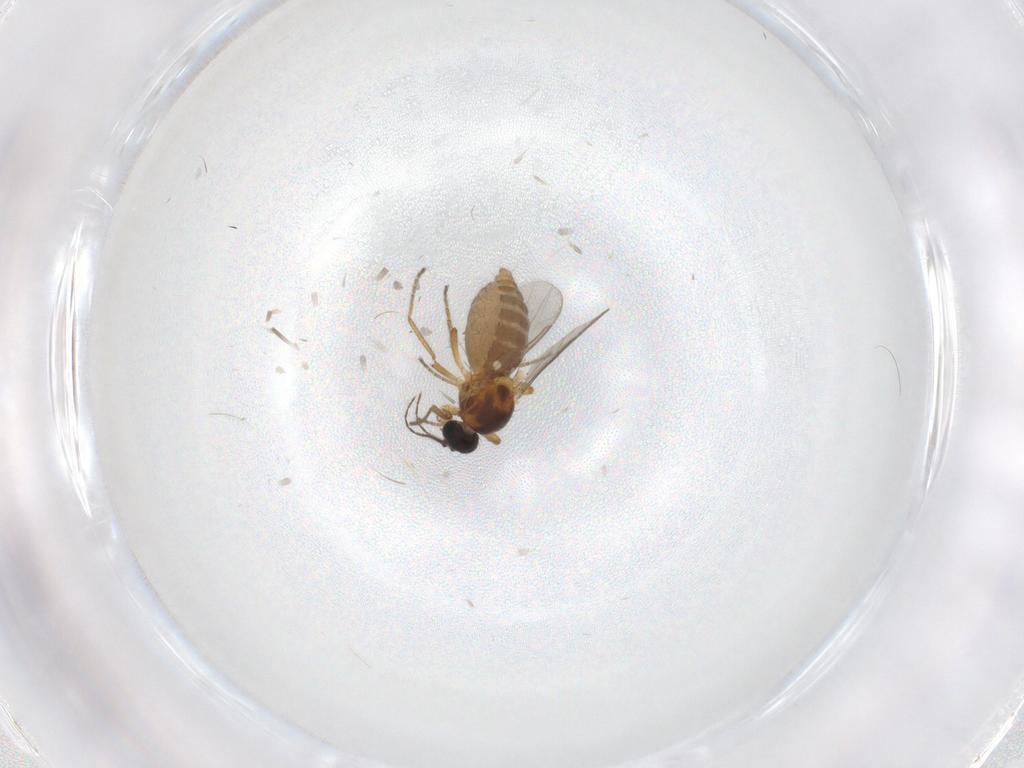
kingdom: Animalia
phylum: Arthropoda
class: Insecta
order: Diptera
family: Ceratopogonidae
